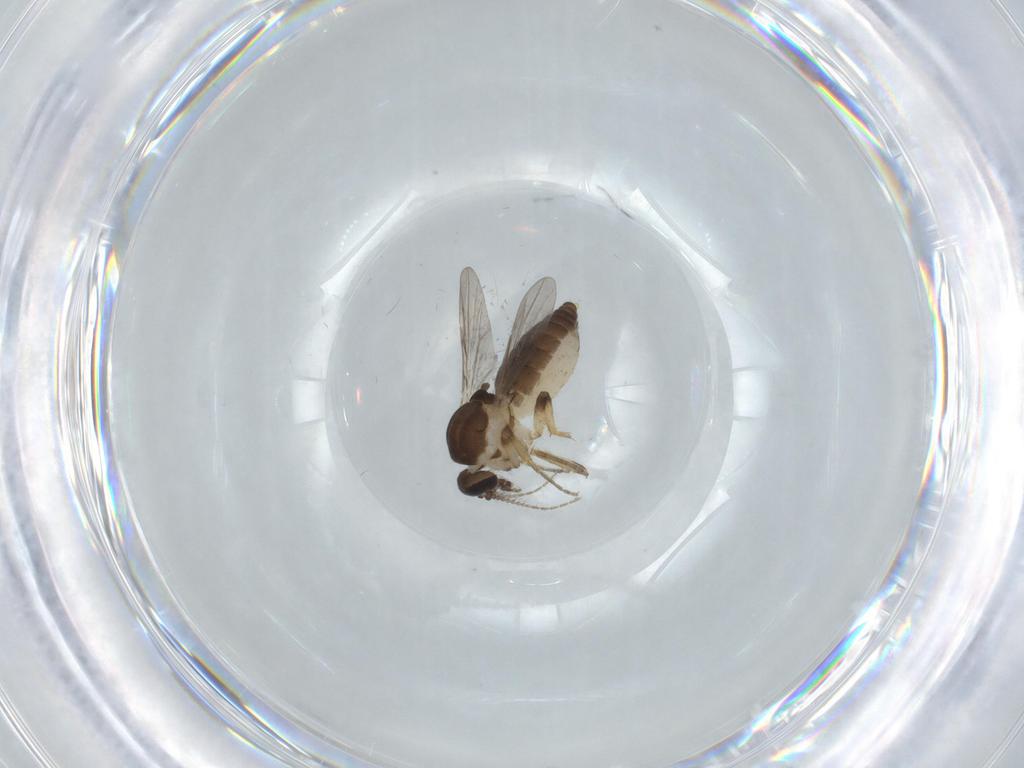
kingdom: Animalia
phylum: Arthropoda
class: Insecta
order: Diptera
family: Ceratopogonidae
